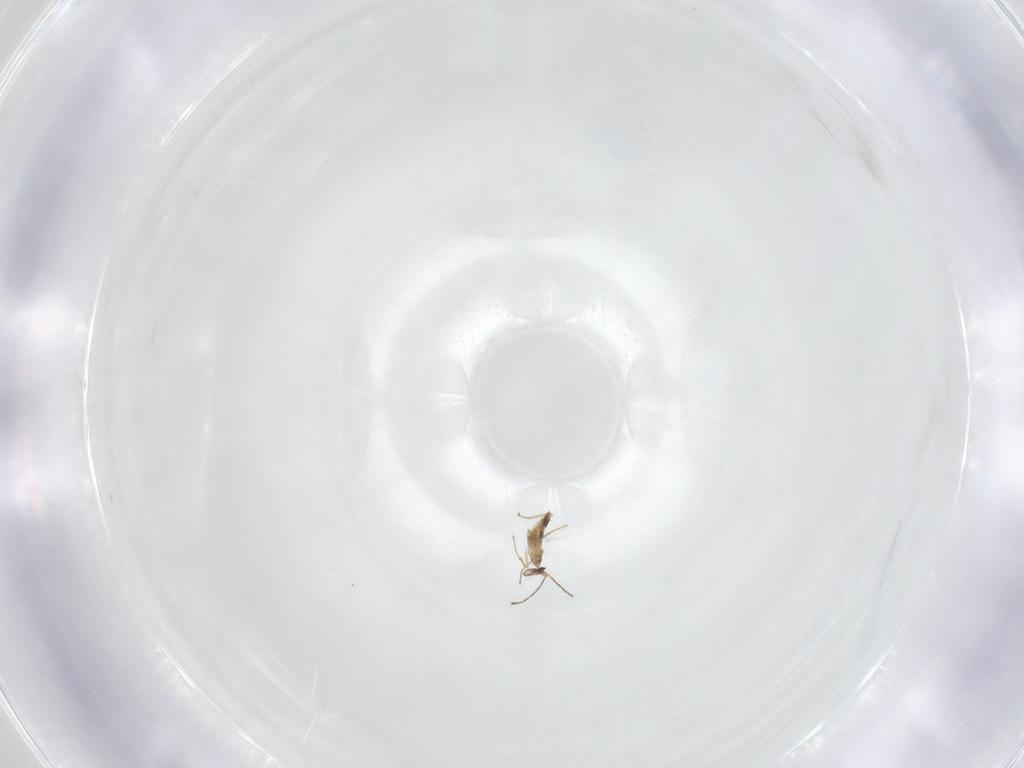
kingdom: Animalia
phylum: Arthropoda
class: Insecta
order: Hymenoptera
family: Mymaridae
